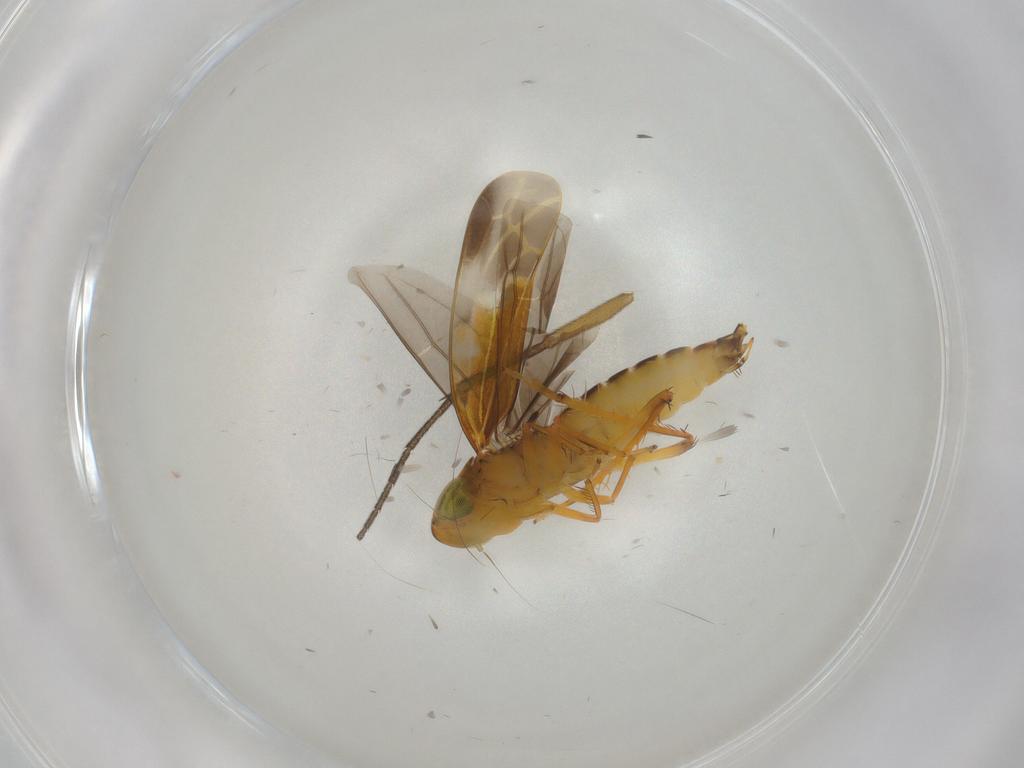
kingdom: Animalia
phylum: Arthropoda
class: Insecta
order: Hemiptera
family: Cicadellidae
